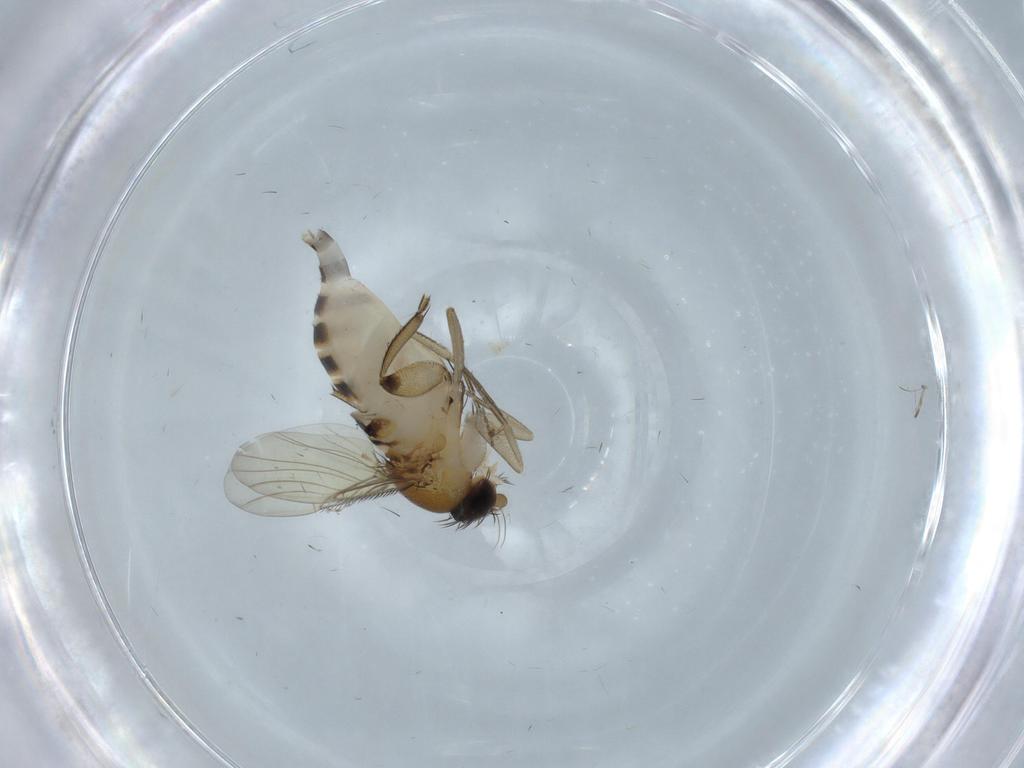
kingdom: Animalia
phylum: Arthropoda
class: Insecta
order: Diptera
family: Phoridae
